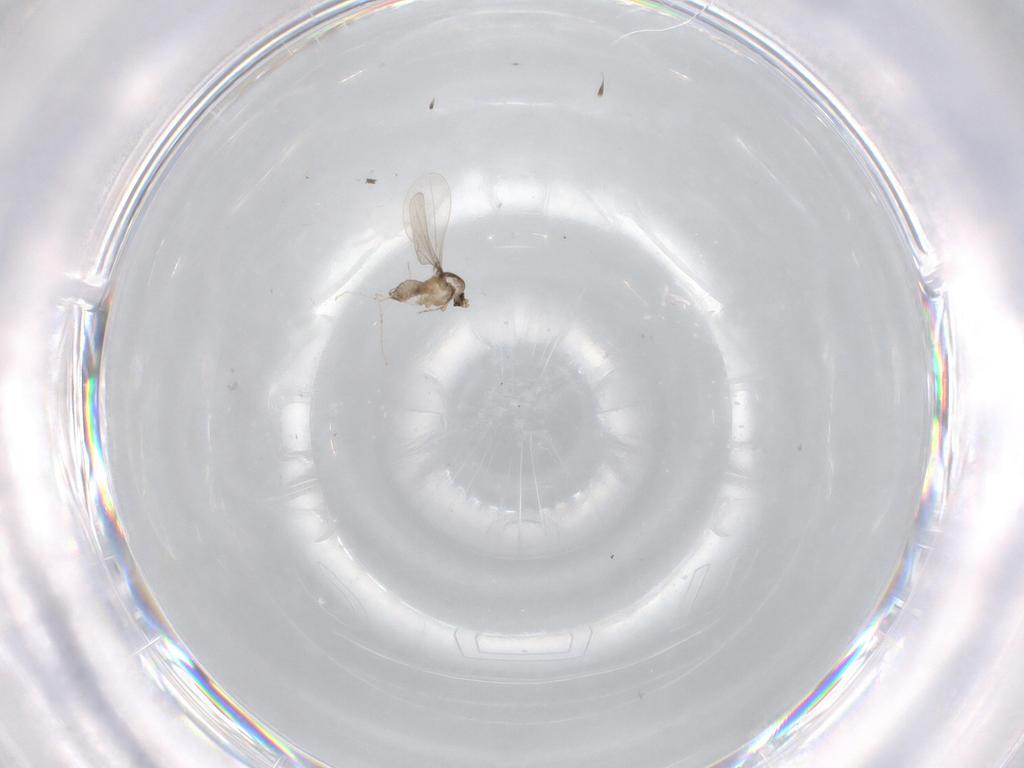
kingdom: Animalia
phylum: Arthropoda
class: Insecta
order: Diptera
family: Cecidomyiidae
